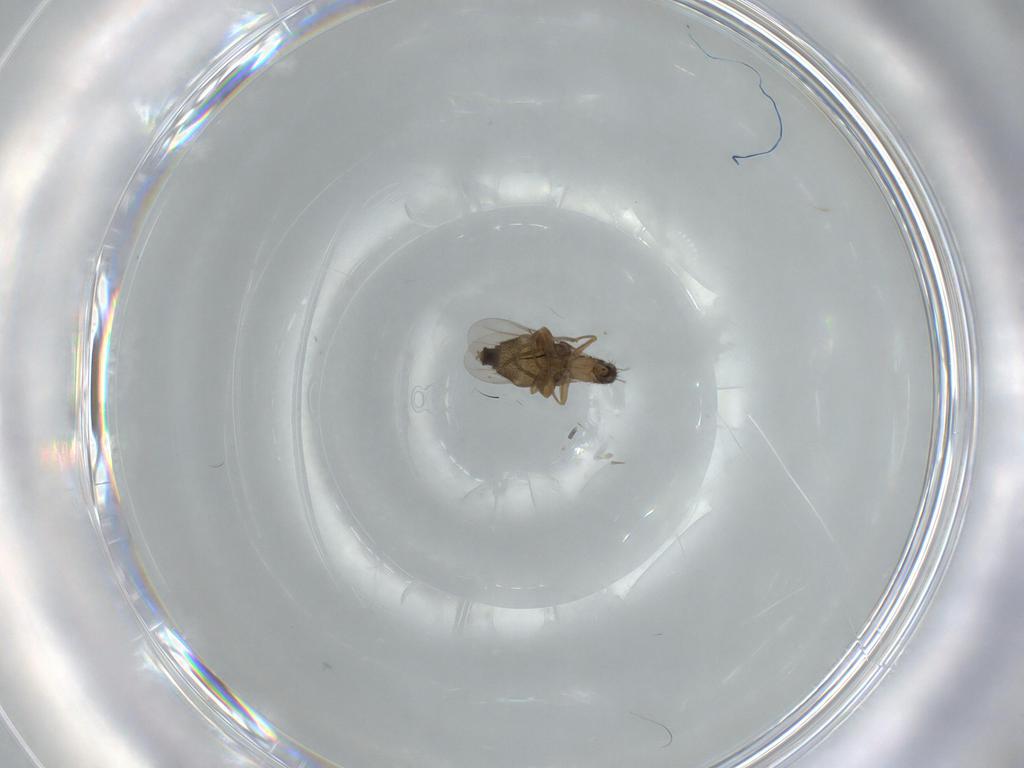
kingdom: Animalia
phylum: Arthropoda
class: Insecta
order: Diptera
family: Phoridae
